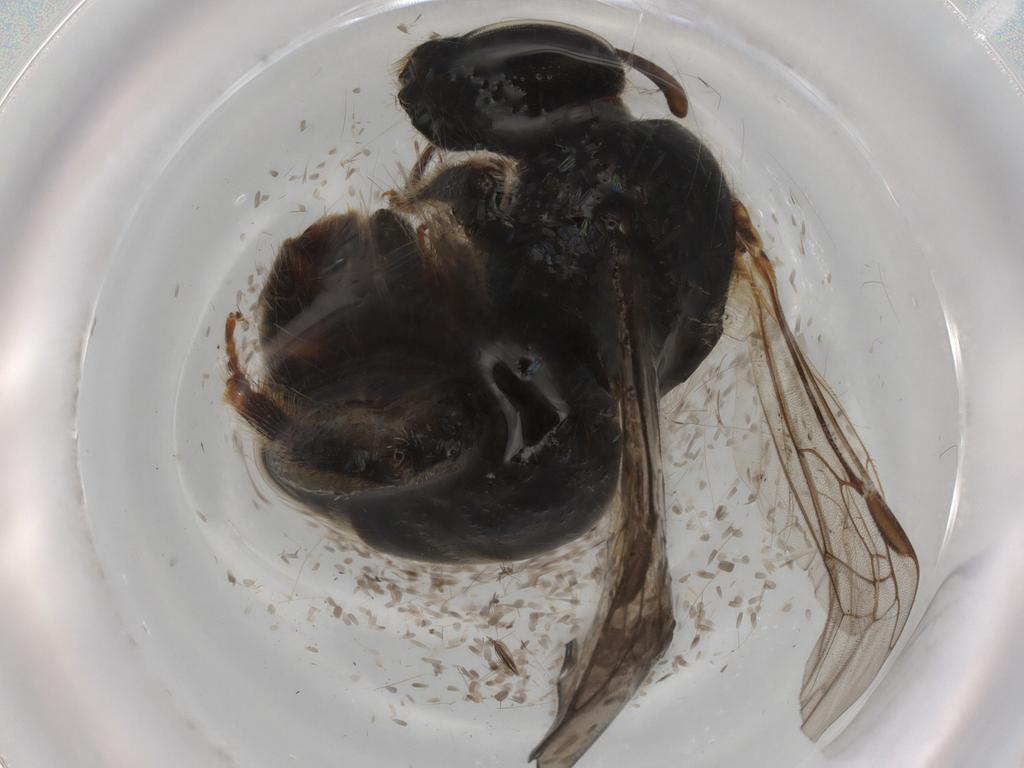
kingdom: Animalia
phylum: Arthropoda
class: Insecta
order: Hymenoptera
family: Halictidae
